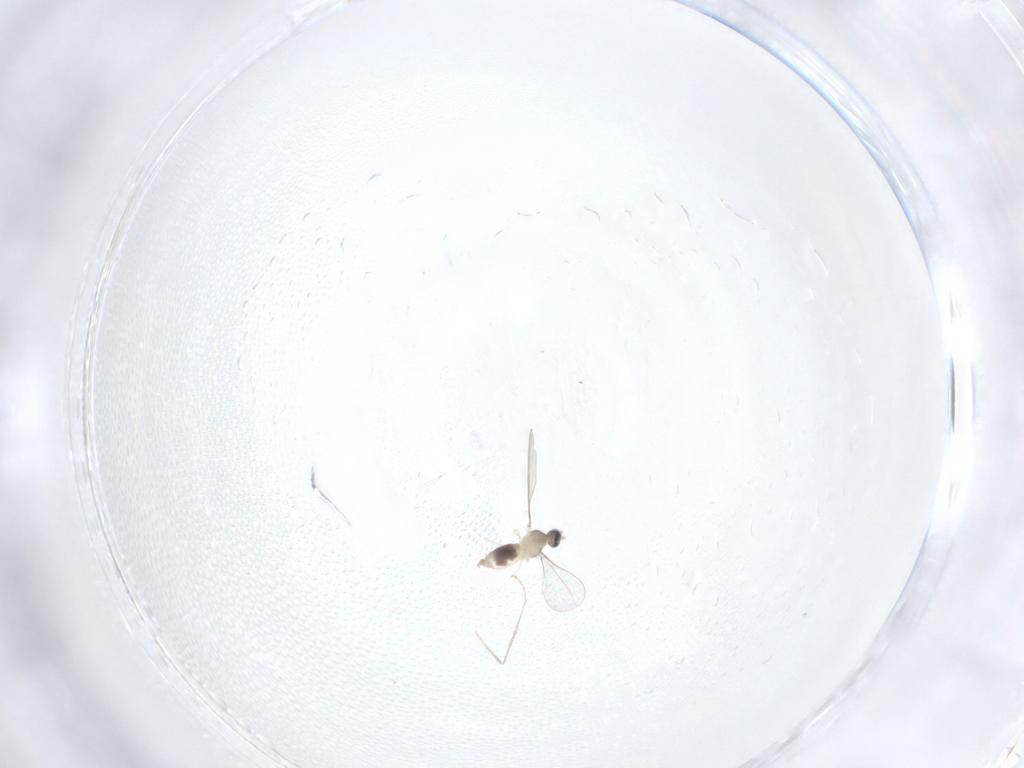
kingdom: Animalia
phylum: Arthropoda
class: Insecta
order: Diptera
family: Cecidomyiidae
